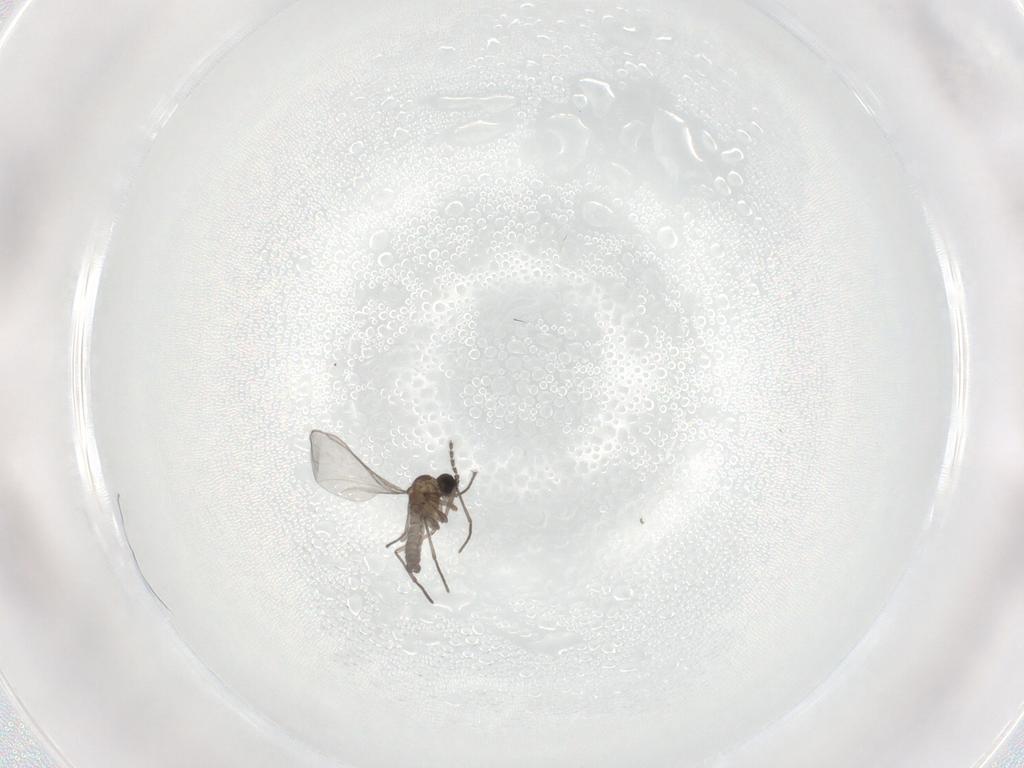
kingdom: Animalia
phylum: Arthropoda
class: Insecta
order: Diptera
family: Sciaridae
